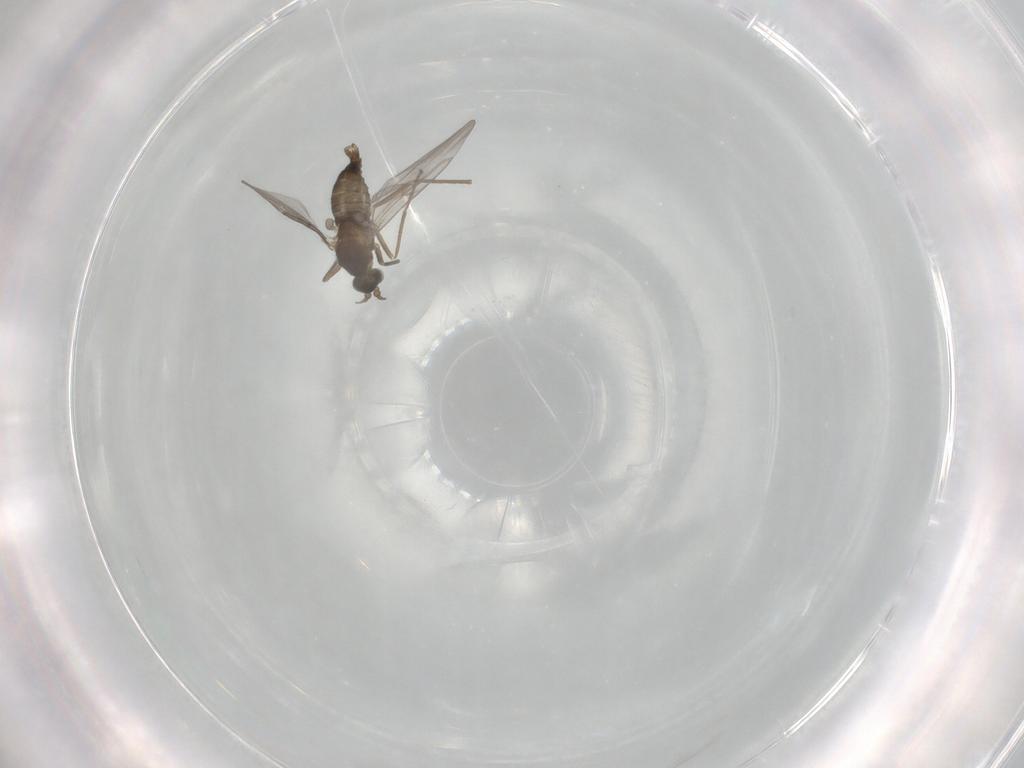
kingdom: Animalia
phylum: Arthropoda
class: Insecta
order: Diptera
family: Cecidomyiidae
